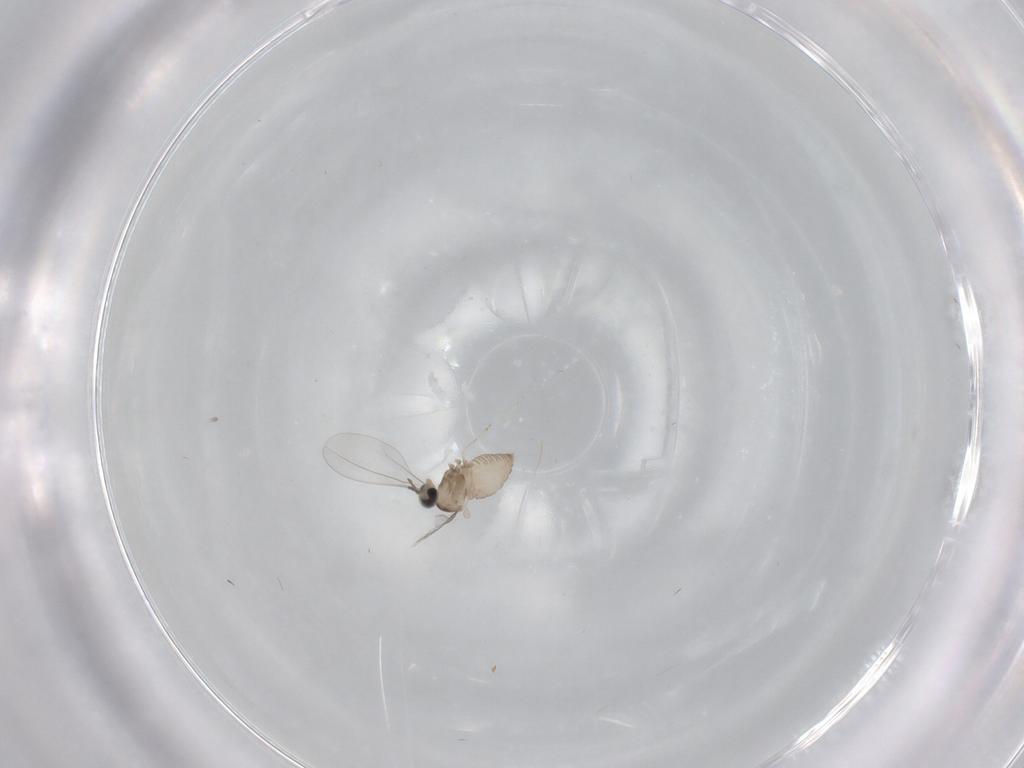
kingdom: Animalia
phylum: Arthropoda
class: Insecta
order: Diptera
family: Cecidomyiidae
